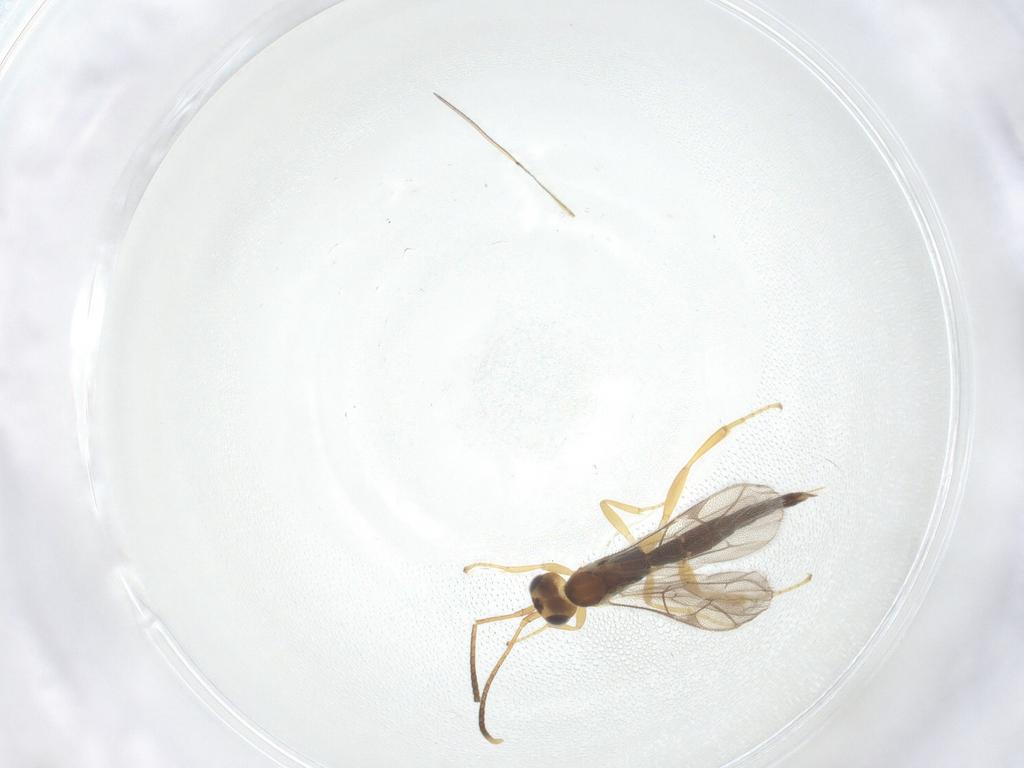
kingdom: Animalia
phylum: Arthropoda
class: Insecta
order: Hymenoptera
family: Ichneumonidae
